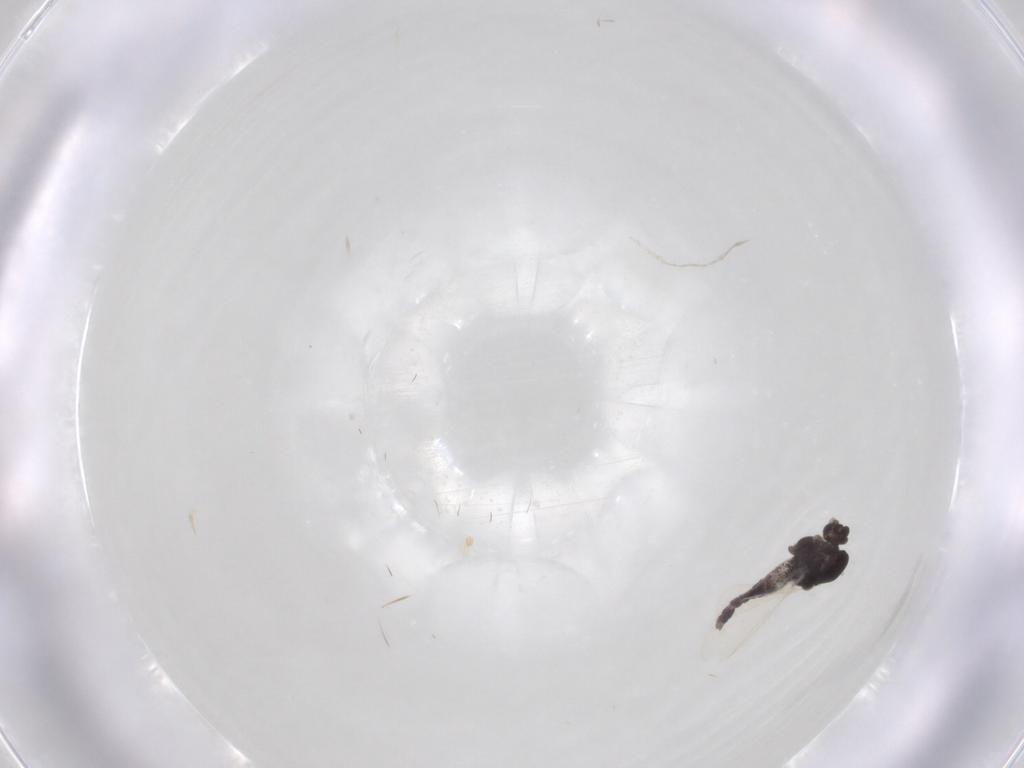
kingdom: Animalia
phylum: Arthropoda
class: Insecta
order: Diptera
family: Chironomidae
